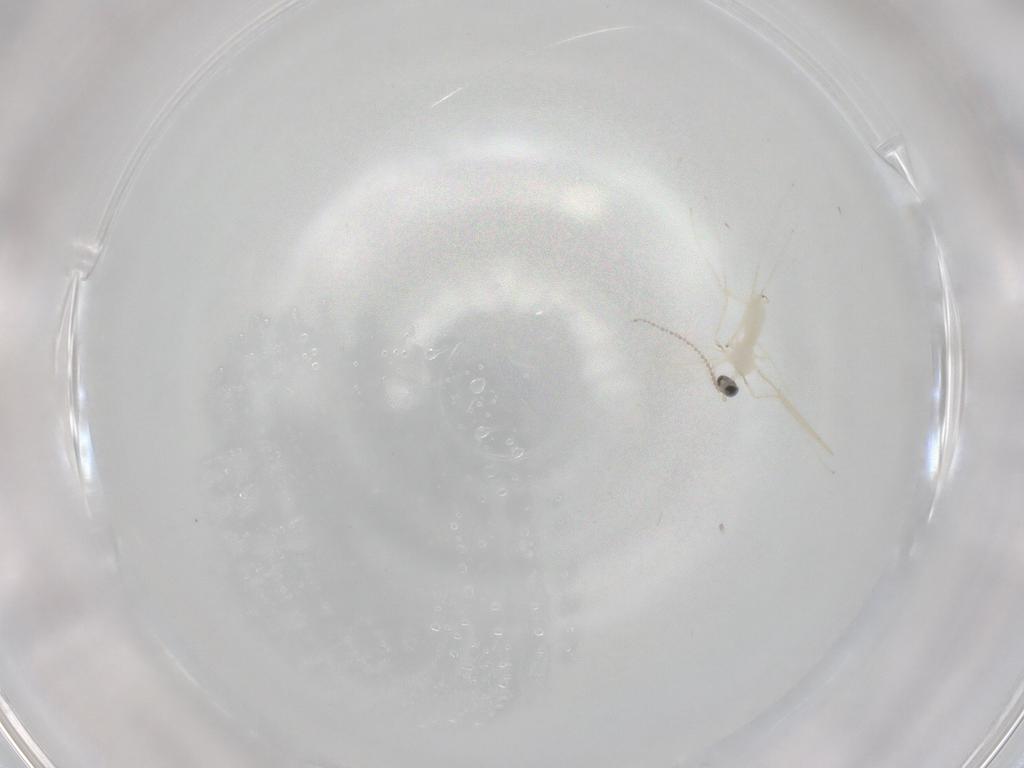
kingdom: Animalia
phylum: Arthropoda
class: Insecta
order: Diptera
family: Cecidomyiidae
